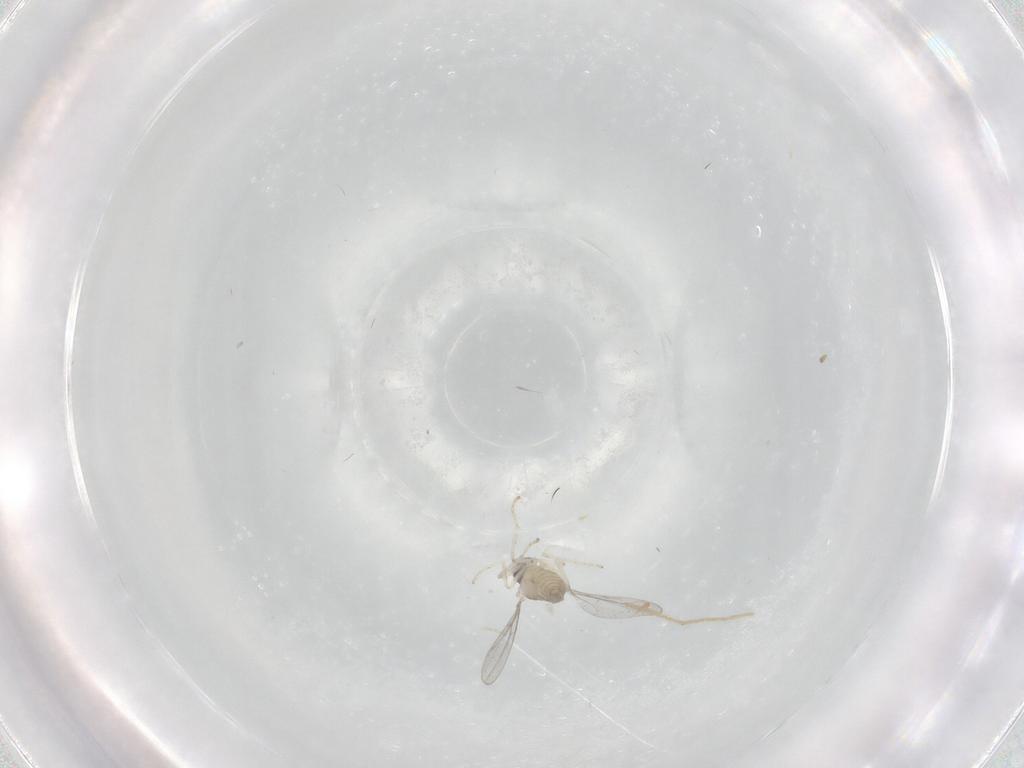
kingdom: Animalia
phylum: Arthropoda
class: Insecta
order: Diptera
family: Chironomidae
